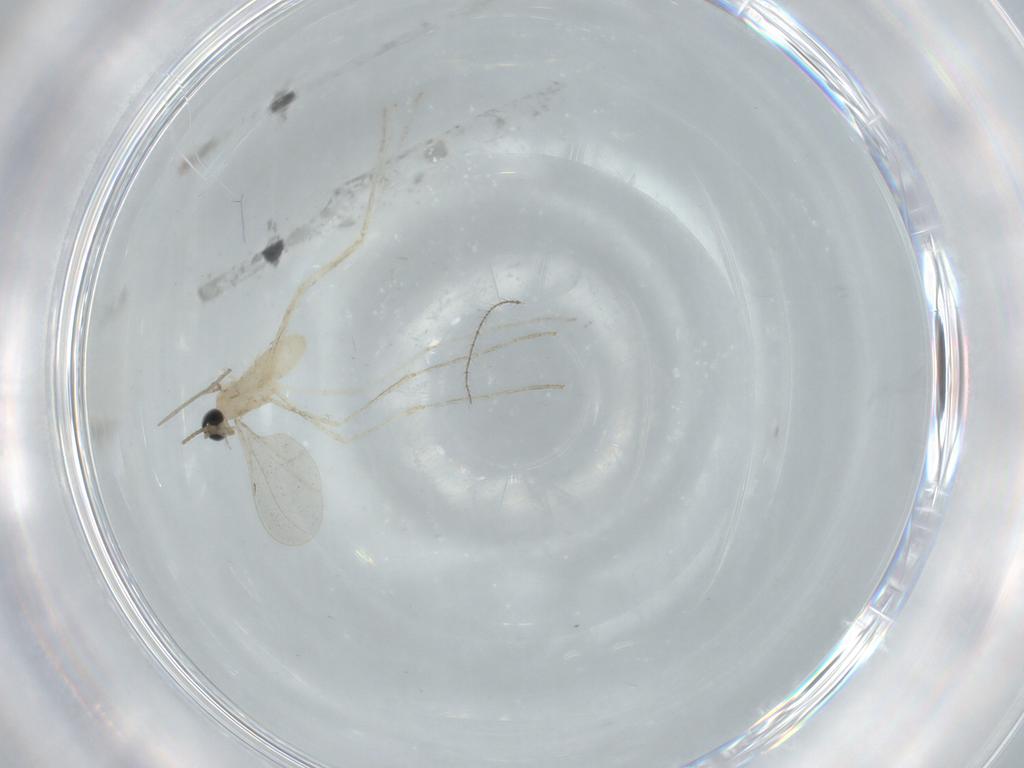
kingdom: Animalia
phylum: Arthropoda
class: Insecta
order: Diptera
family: Cecidomyiidae
